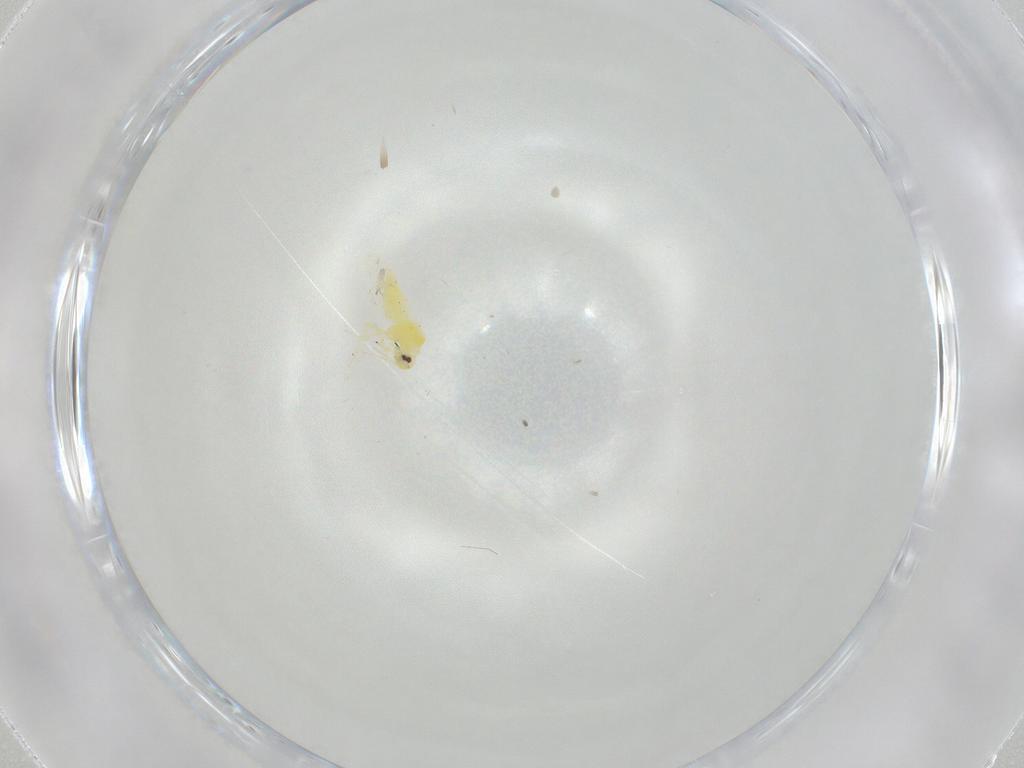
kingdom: Animalia
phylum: Arthropoda
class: Insecta
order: Hemiptera
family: Aleyrodidae
